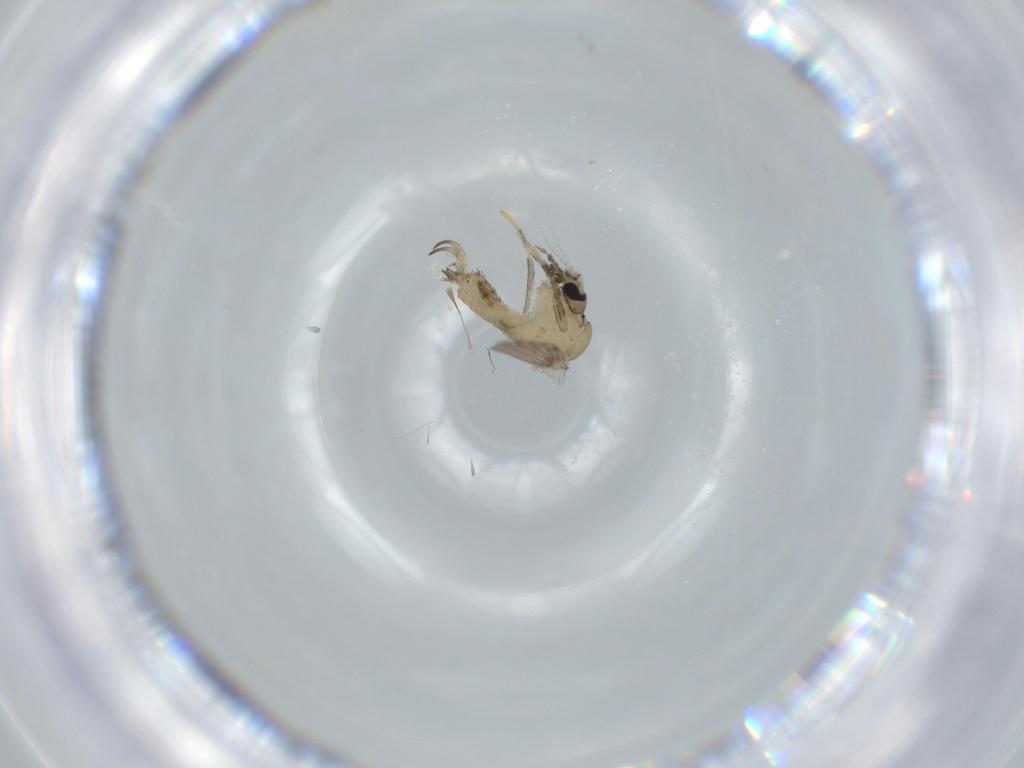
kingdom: Animalia
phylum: Arthropoda
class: Insecta
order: Diptera
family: Psychodidae
